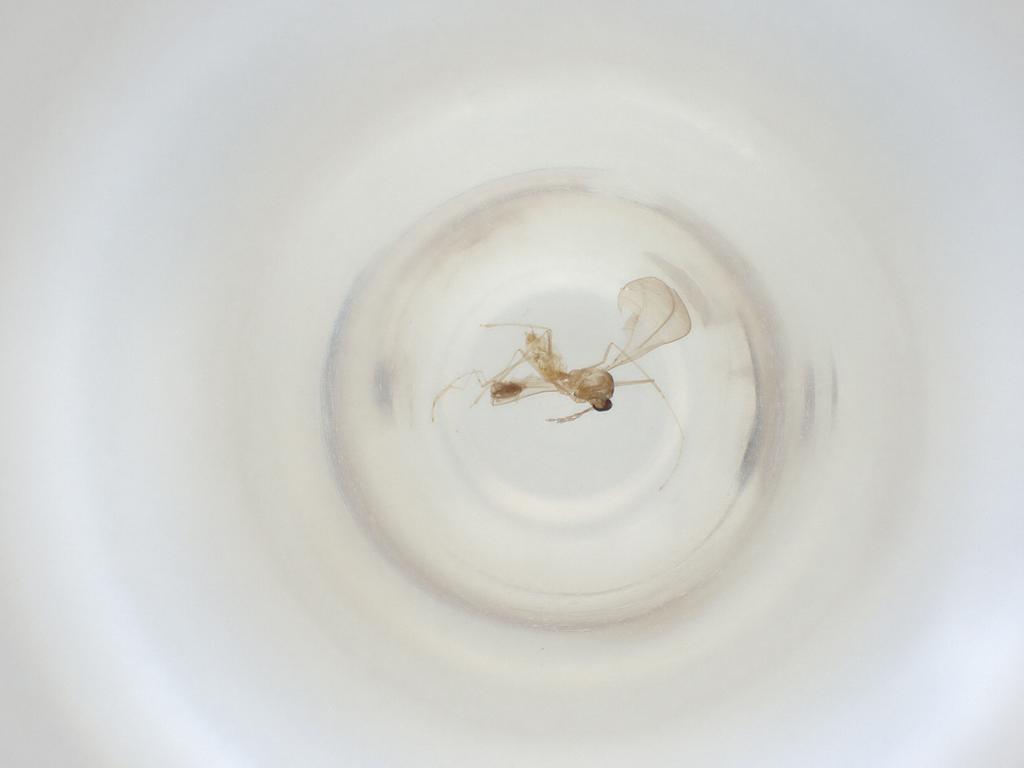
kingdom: Animalia
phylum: Arthropoda
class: Insecta
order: Diptera
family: Cecidomyiidae
